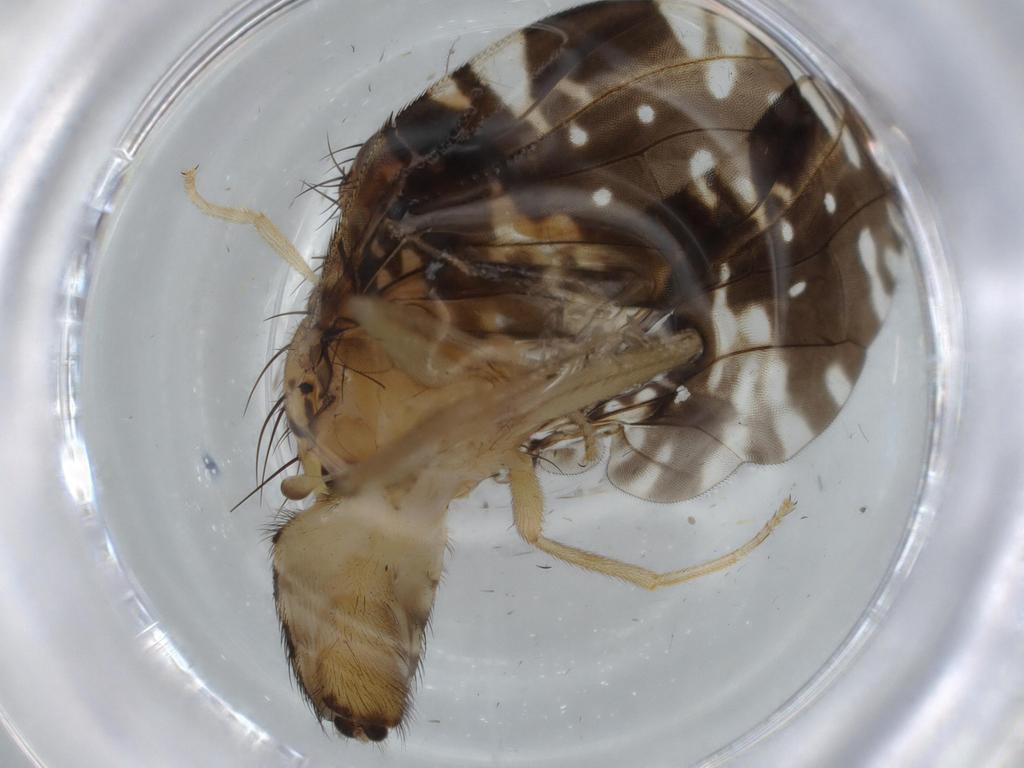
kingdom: Animalia
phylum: Arthropoda
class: Insecta
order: Diptera
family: Tephritidae
